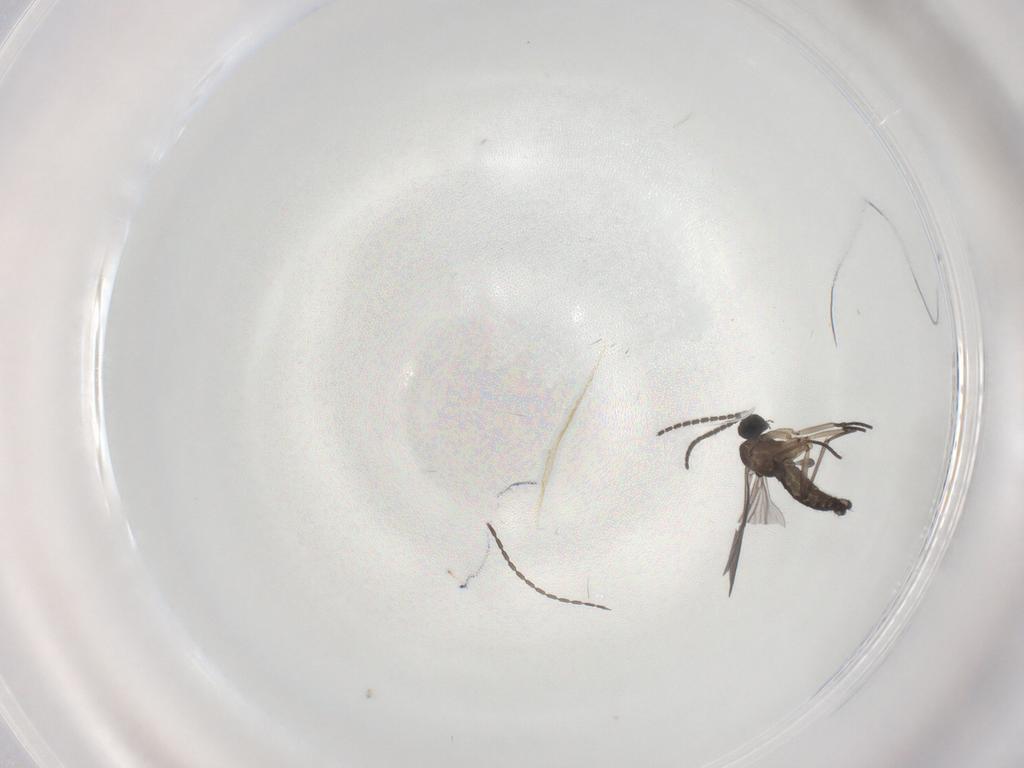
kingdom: Animalia
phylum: Arthropoda
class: Insecta
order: Diptera
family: Sciaridae
